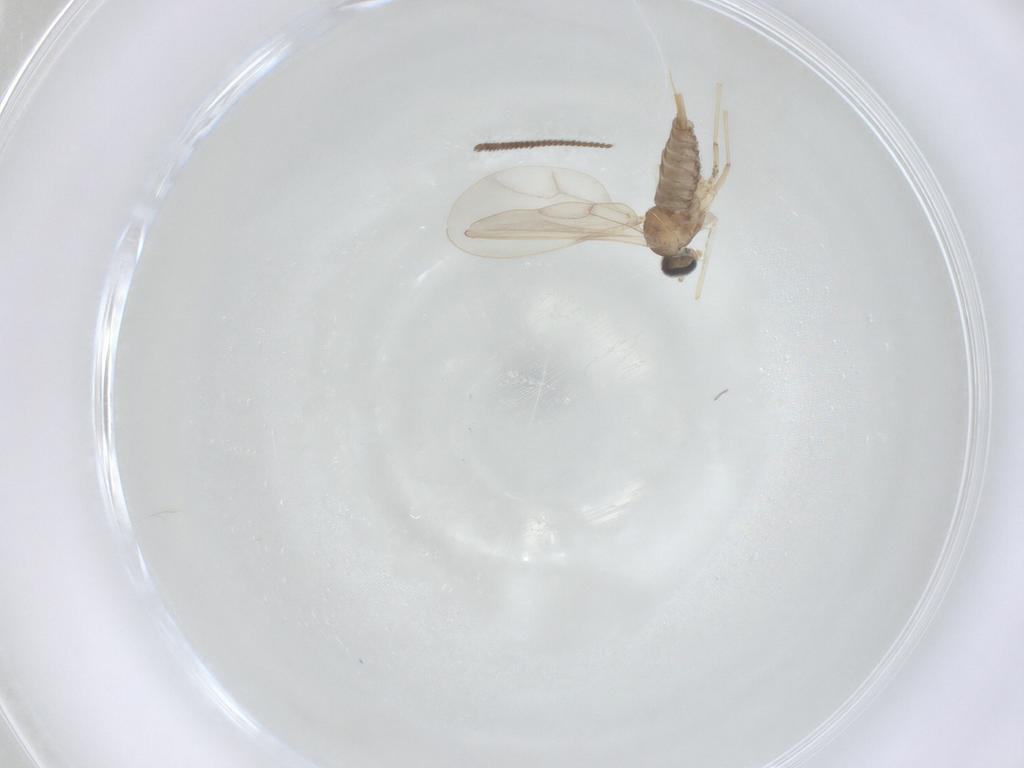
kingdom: Animalia
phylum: Arthropoda
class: Insecta
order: Diptera
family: Cecidomyiidae
